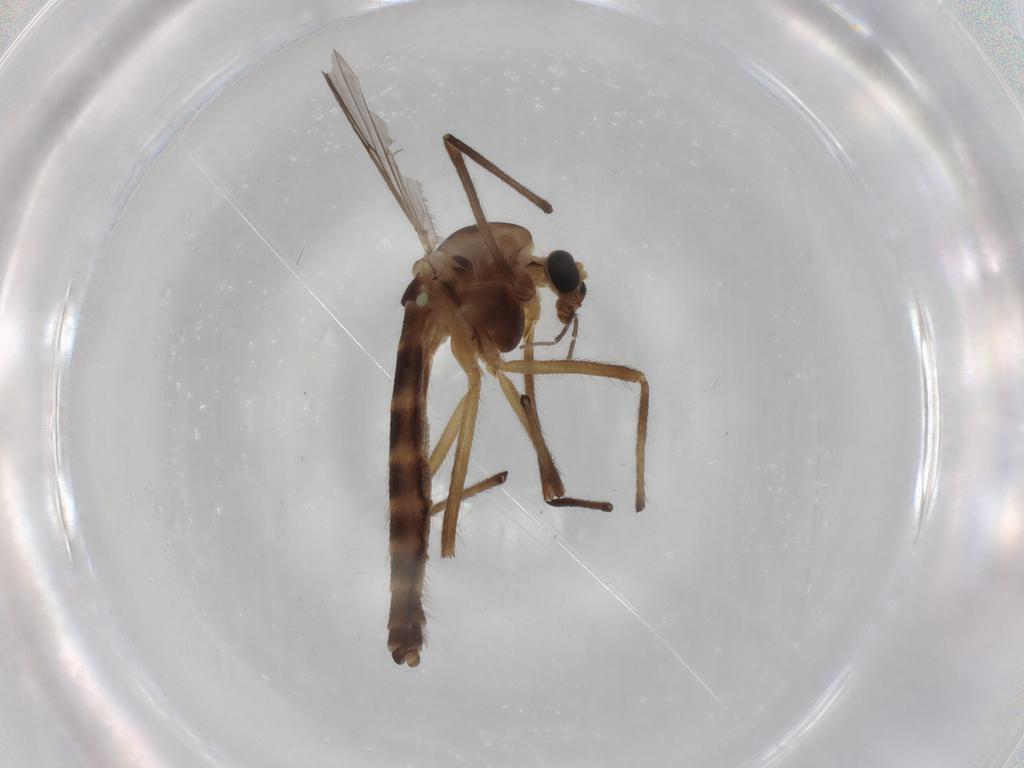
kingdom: Animalia
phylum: Arthropoda
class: Insecta
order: Diptera
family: Chironomidae
